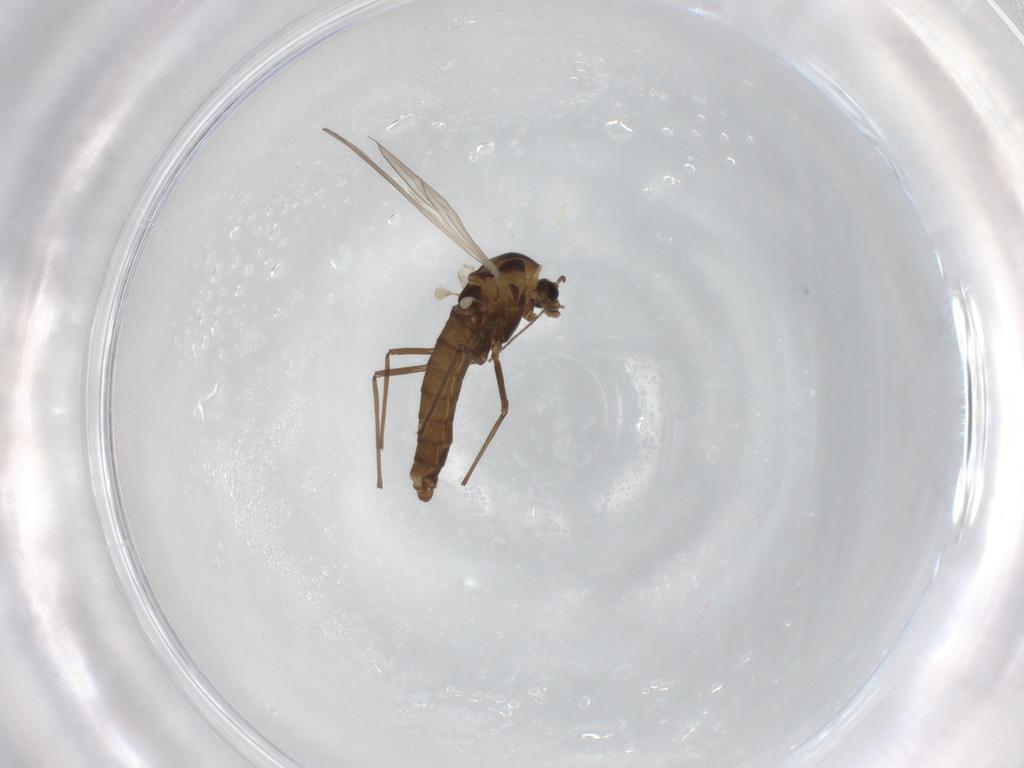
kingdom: Animalia
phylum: Arthropoda
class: Insecta
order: Diptera
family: Chironomidae
